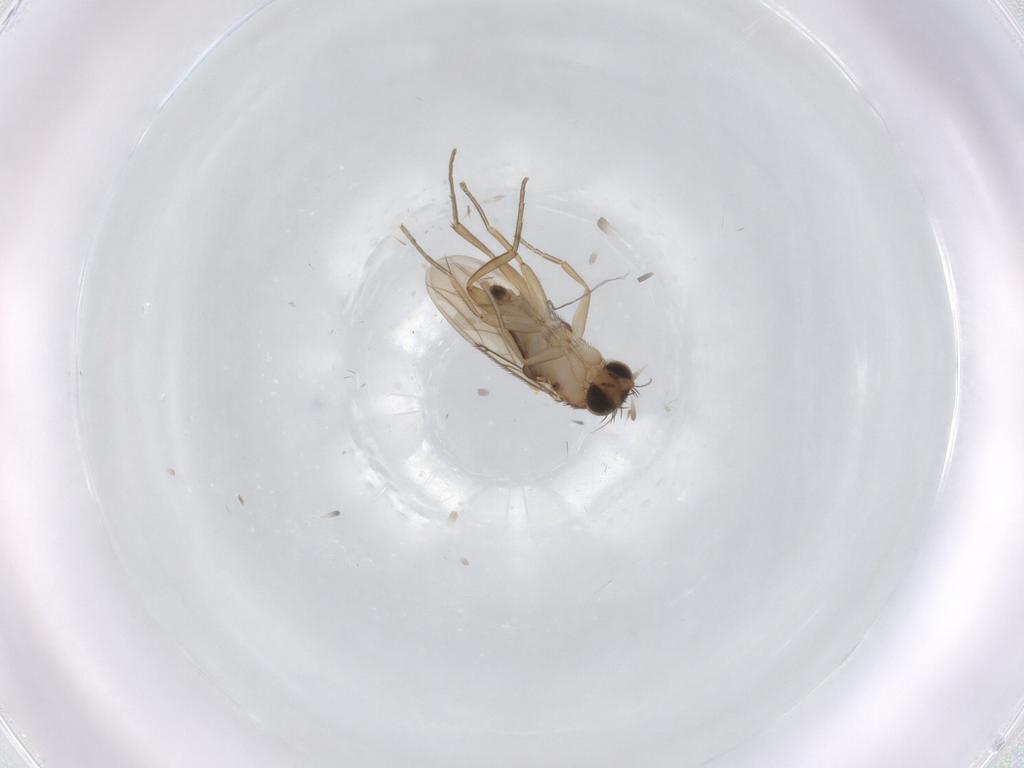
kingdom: Animalia
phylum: Arthropoda
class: Insecta
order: Diptera
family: Phoridae
